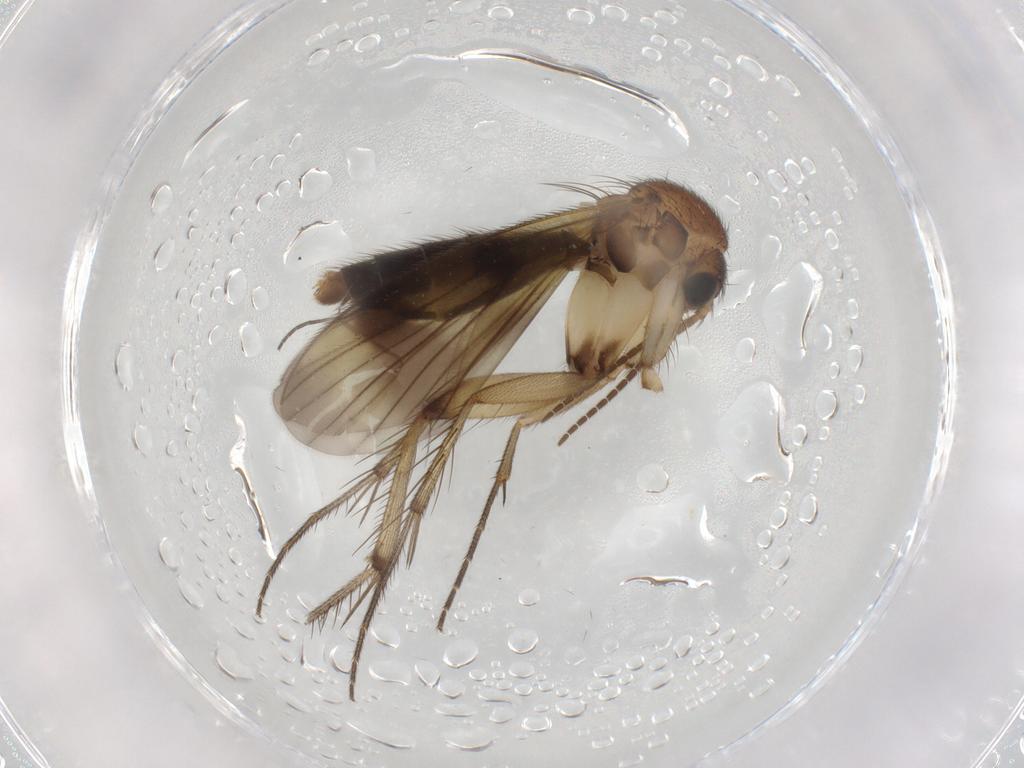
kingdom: Animalia
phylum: Arthropoda
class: Insecta
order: Diptera
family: Phoridae
